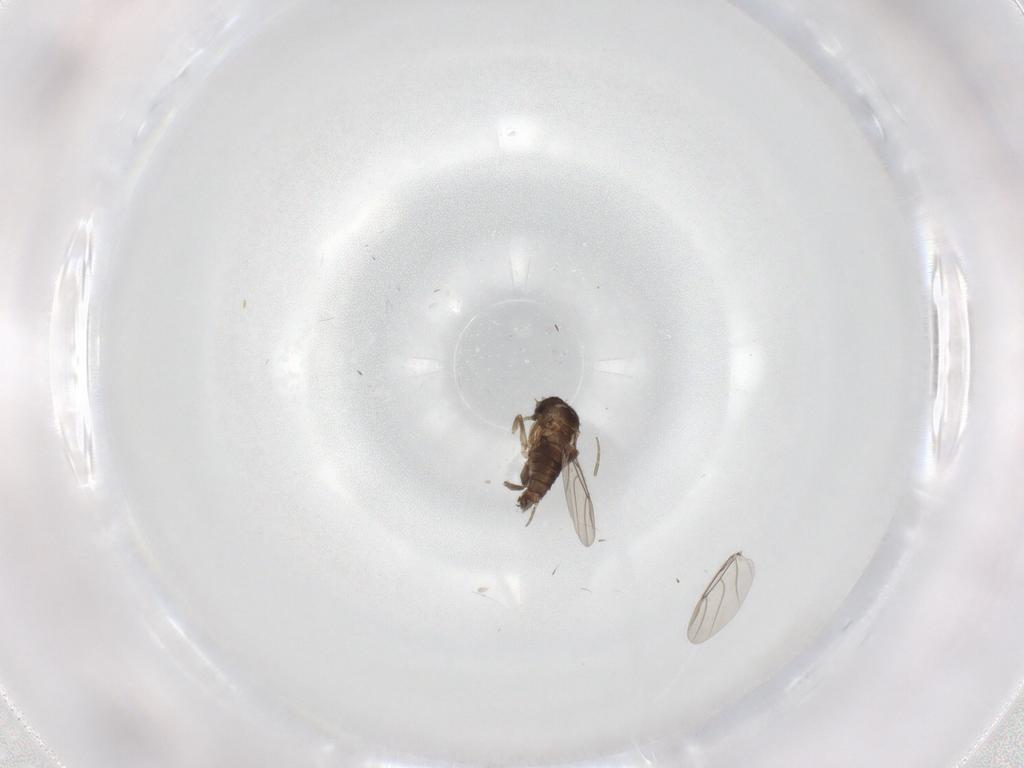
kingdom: Animalia
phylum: Arthropoda
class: Insecta
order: Diptera
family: Phoridae
